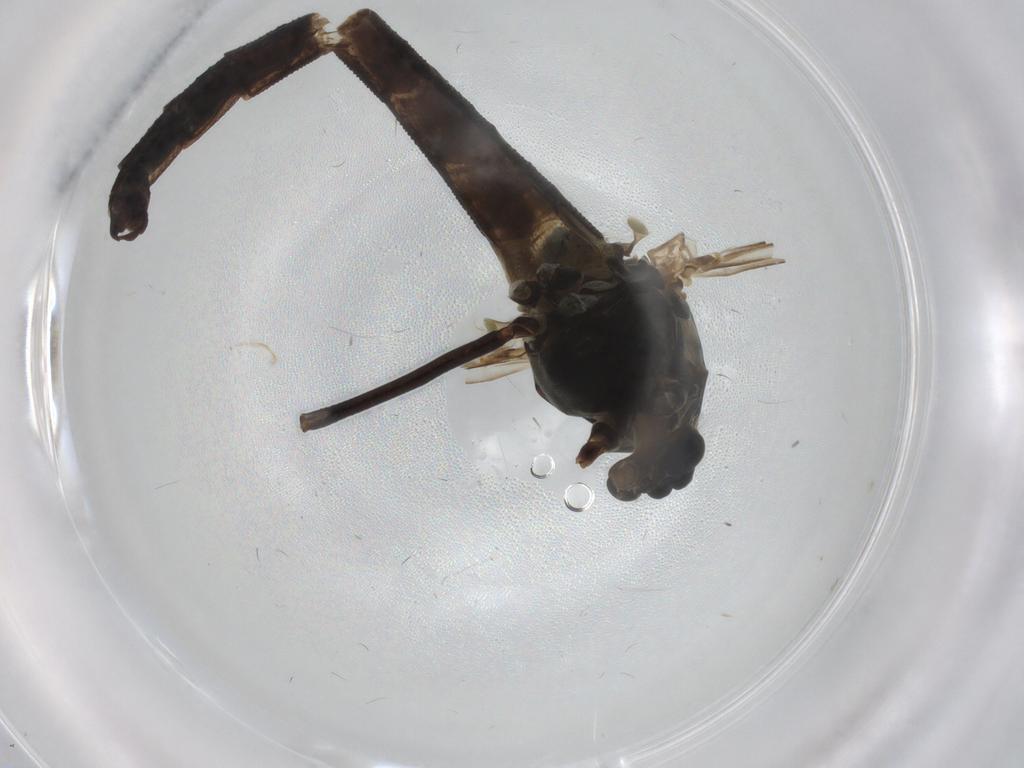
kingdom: Animalia
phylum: Arthropoda
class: Insecta
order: Diptera
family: Chironomidae
